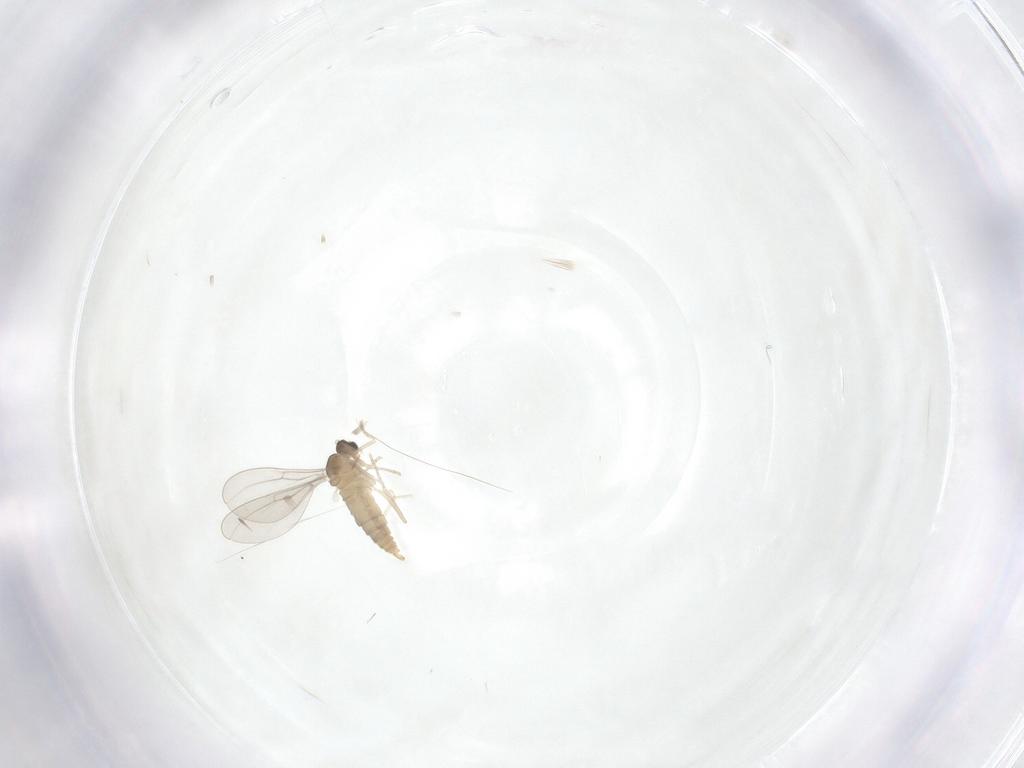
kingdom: Animalia
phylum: Arthropoda
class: Insecta
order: Diptera
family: Cecidomyiidae
